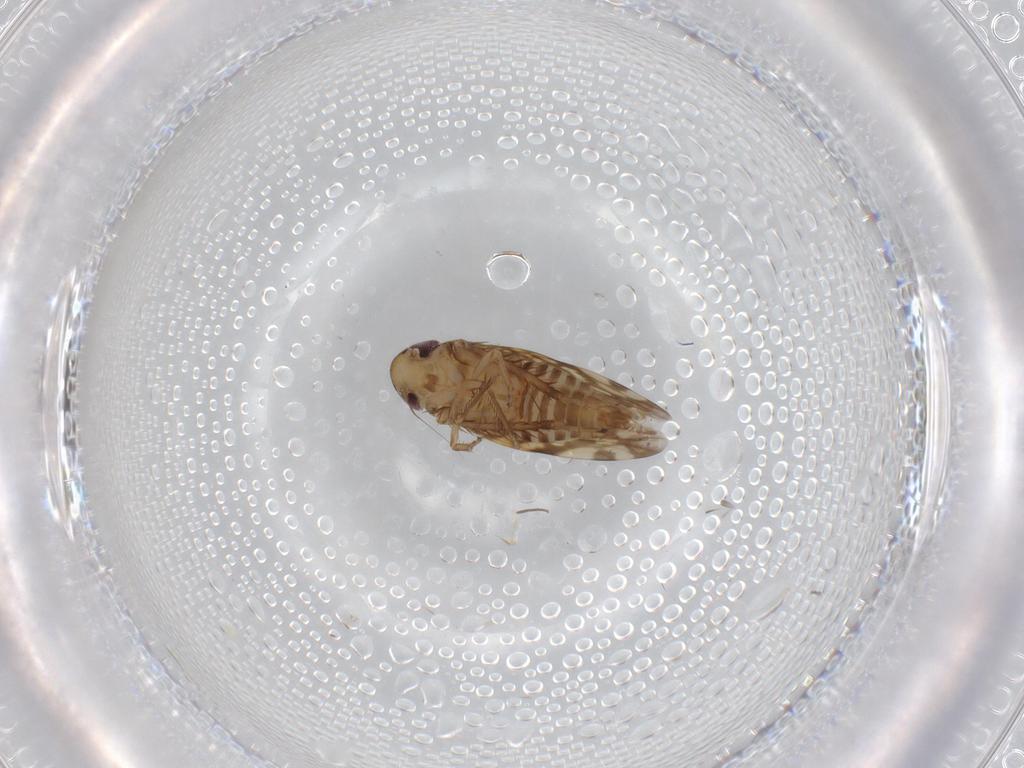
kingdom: Animalia
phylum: Arthropoda
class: Insecta
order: Hemiptera
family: Cicadellidae
